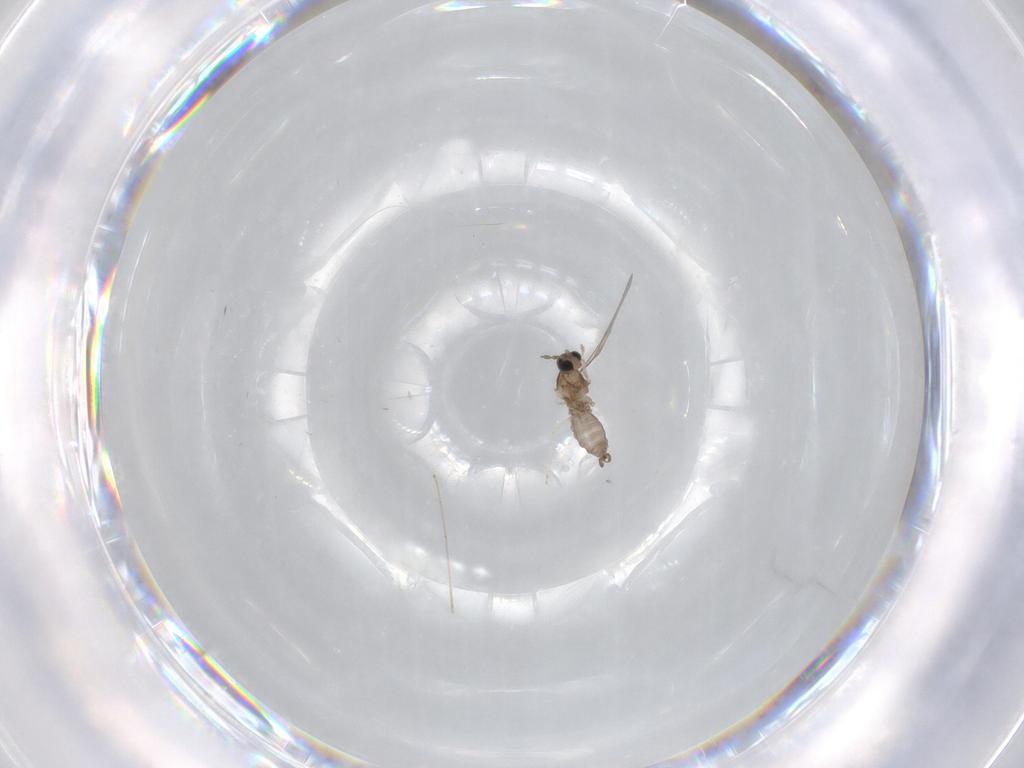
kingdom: Animalia
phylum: Arthropoda
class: Insecta
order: Diptera
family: Cecidomyiidae
